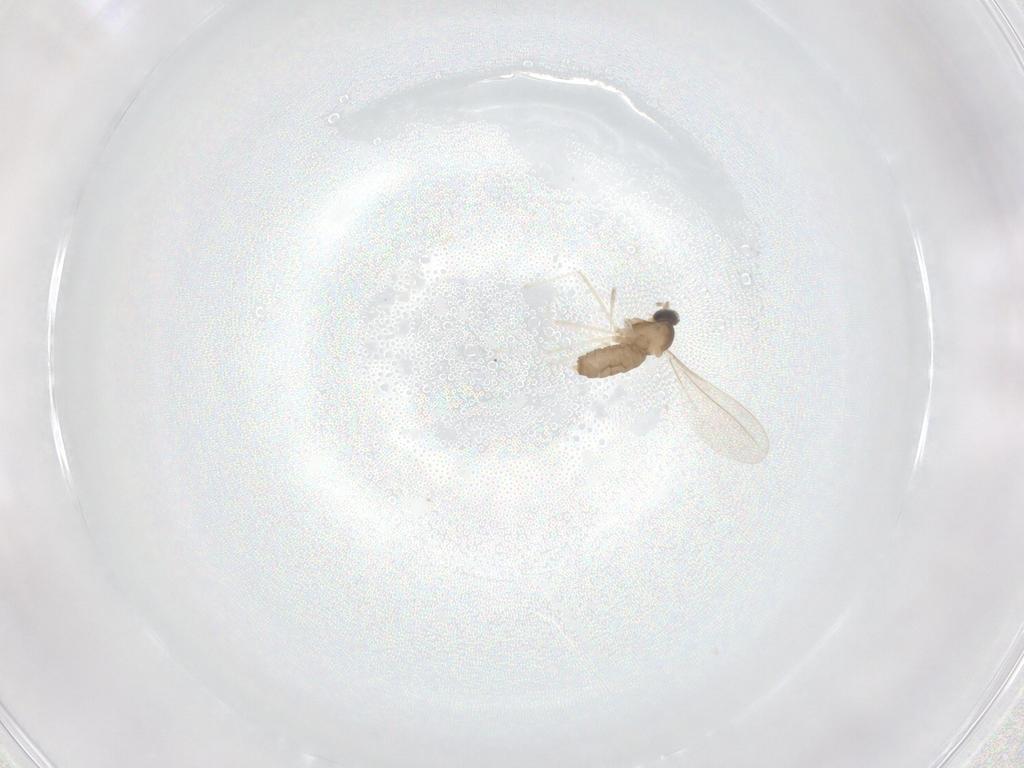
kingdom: Animalia
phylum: Arthropoda
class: Insecta
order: Diptera
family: Cecidomyiidae
